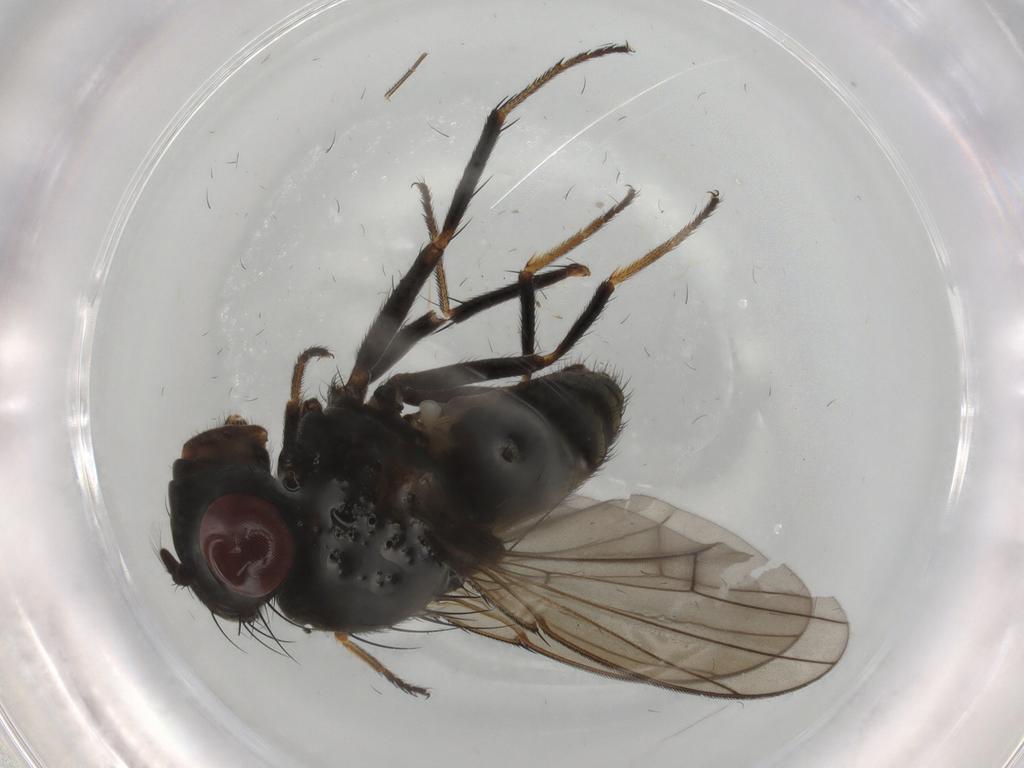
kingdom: Animalia
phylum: Arthropoda
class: Insecta
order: Diptera
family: Ephydridae
